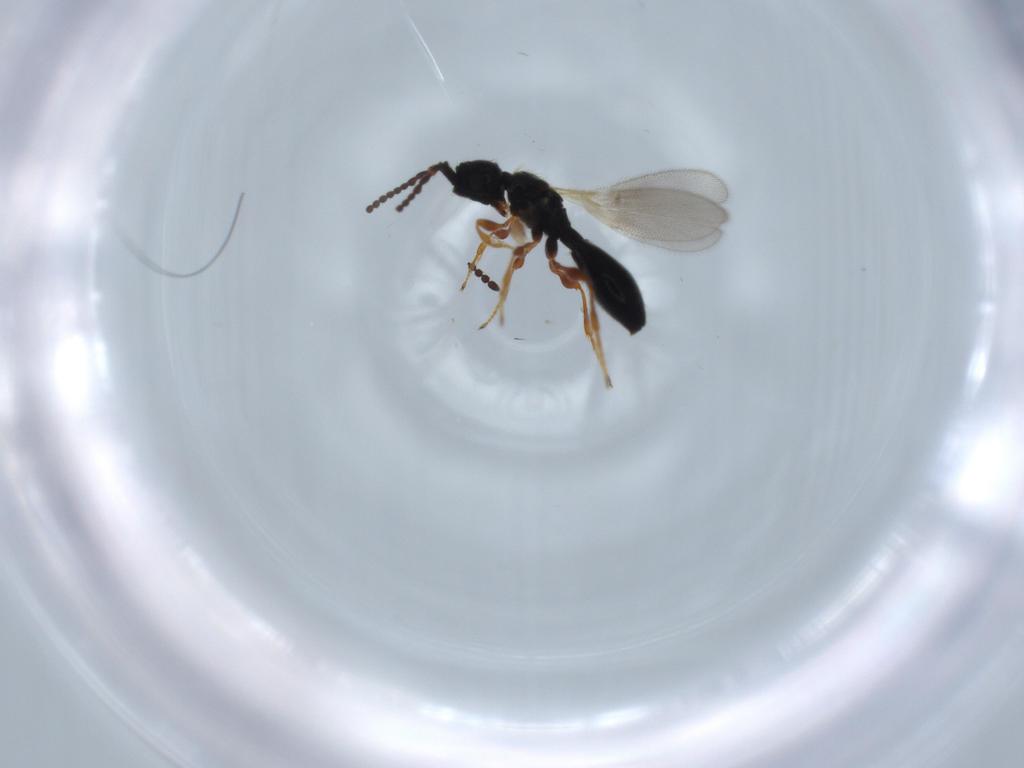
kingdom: Animalia
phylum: Arthropoda
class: Insecta
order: Hymenoptera
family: Diapriidae
